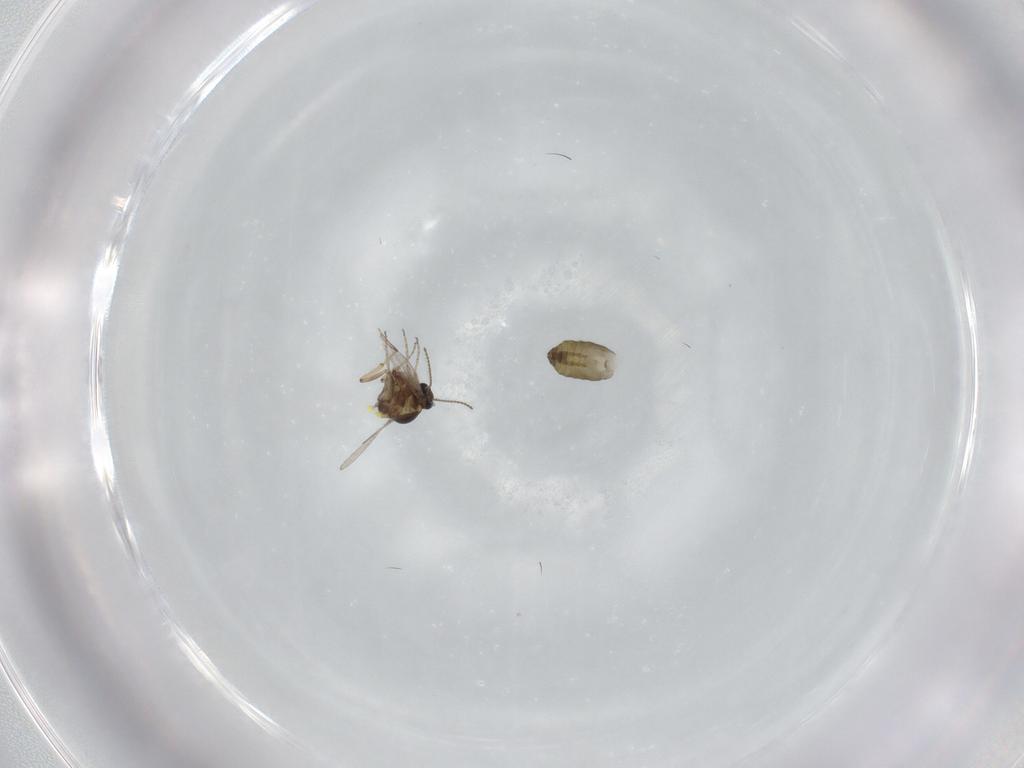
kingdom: Animalia
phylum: Arthropoda
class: Insecta
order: Diptera
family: Ceratopogonidae
